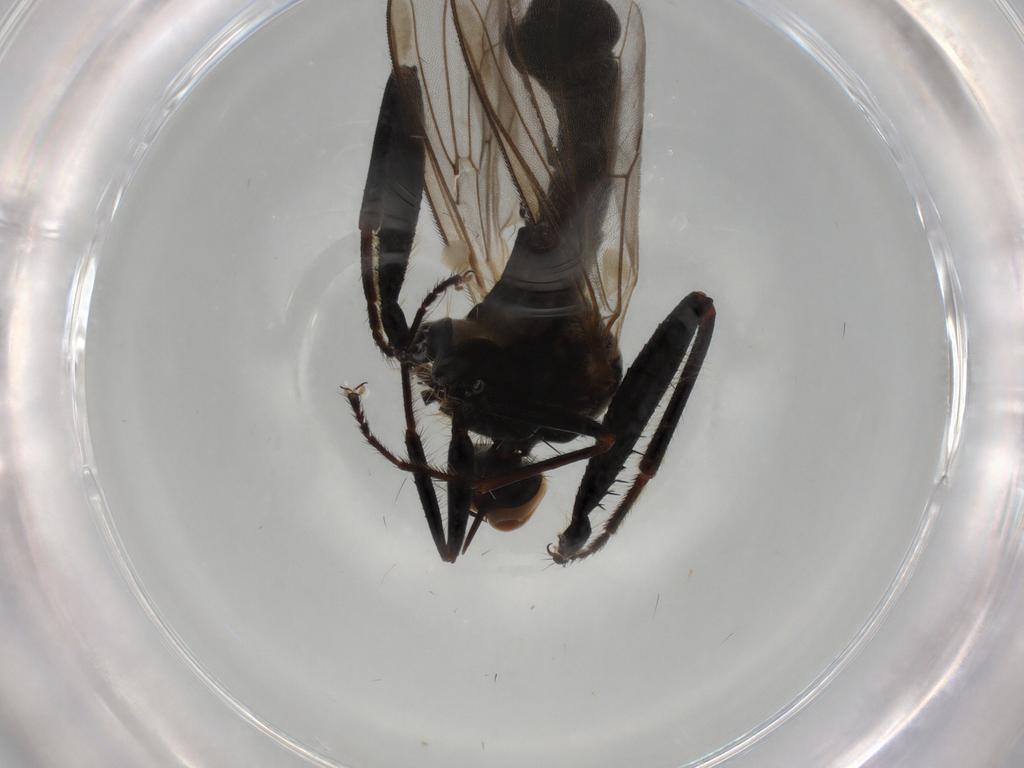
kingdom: Animalia
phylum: Arthropoda
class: Insecta
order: Diptera
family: Hybotidae
